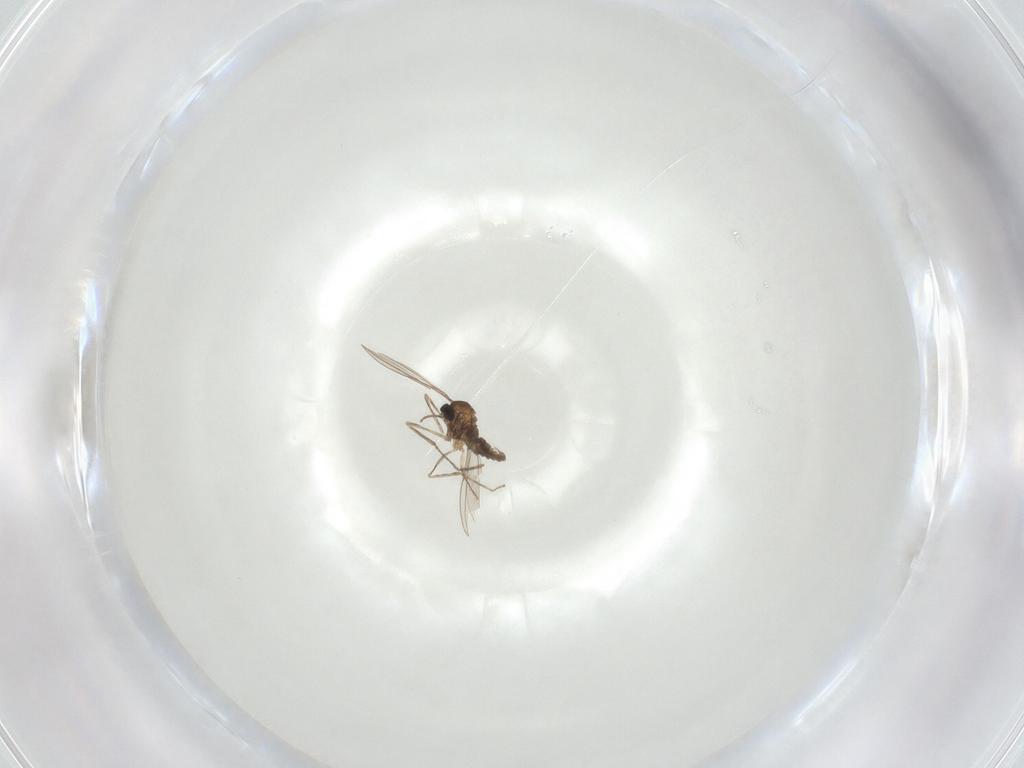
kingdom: Animalia
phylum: Arthropoda
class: Insecta
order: Diptera
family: Cecidomyiidae
